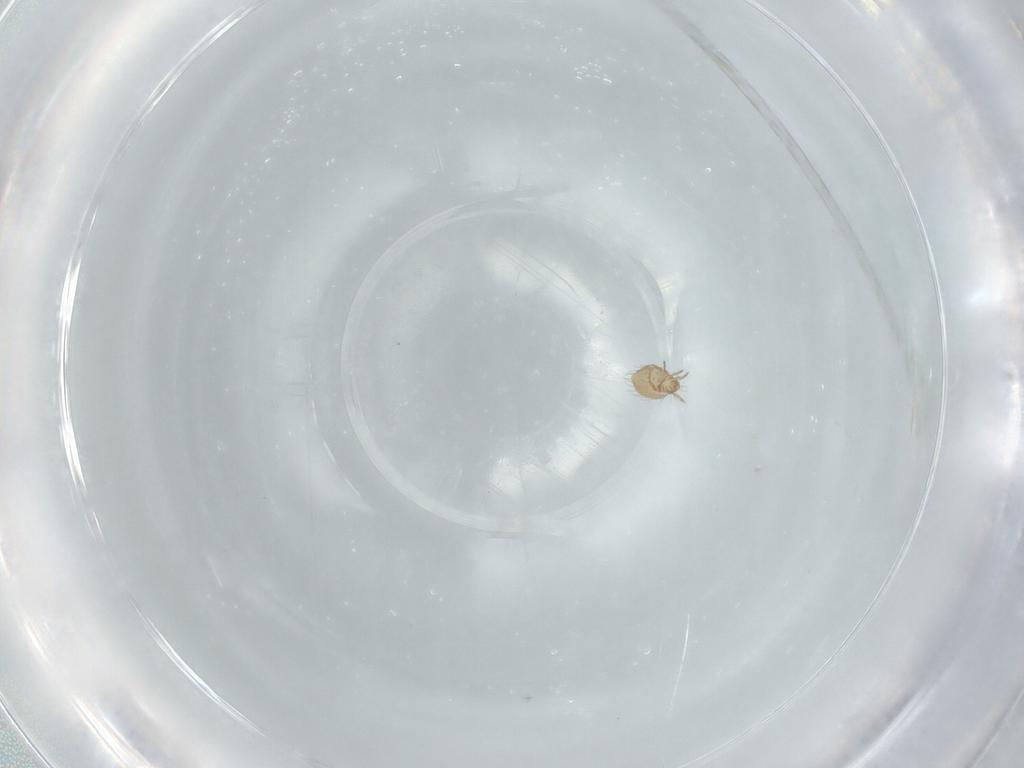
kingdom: Animalia
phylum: Arthropoda
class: Arachnida
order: Sarcoptiformes
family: Ceratozetidae
